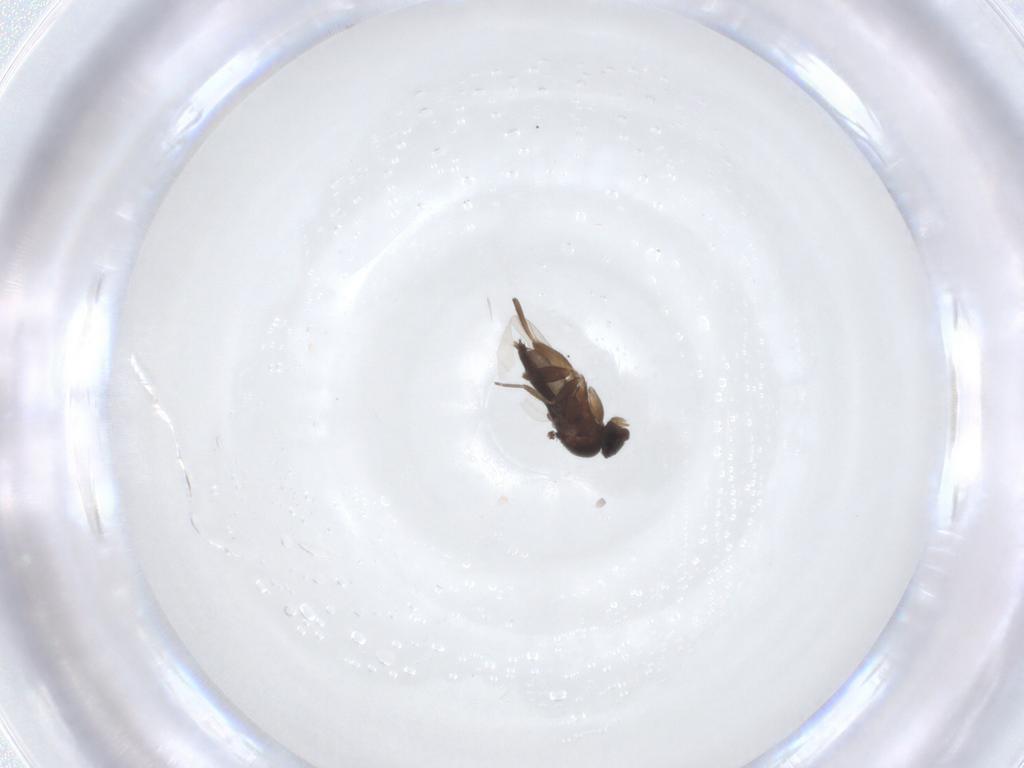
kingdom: Animalia
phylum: Arthropoda
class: Insecta
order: Diptera
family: Phoridae
